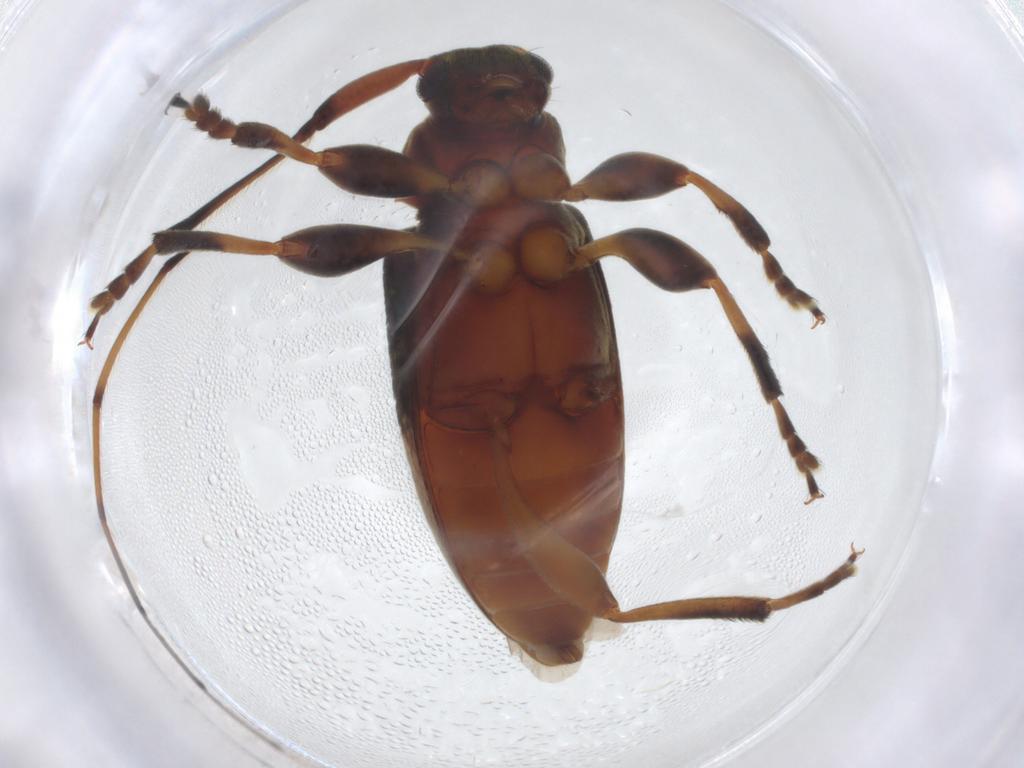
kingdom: Animalia
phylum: Arthropoda
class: Insecta
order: Coleoptera
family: Cerambycidae
